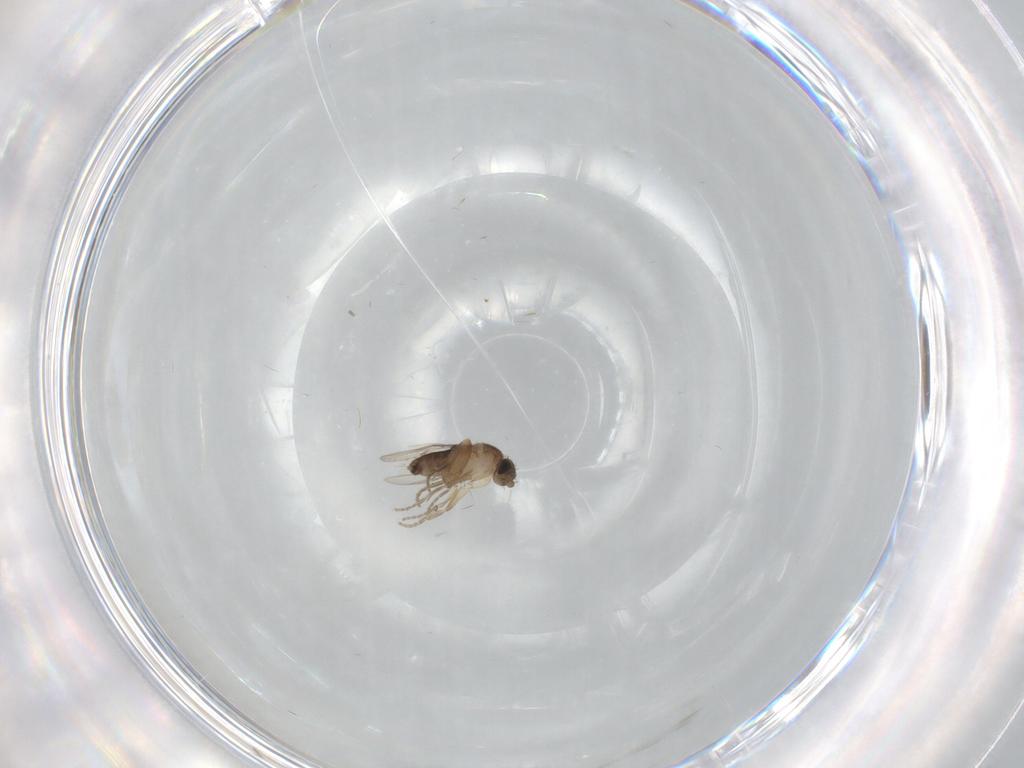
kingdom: Animalia
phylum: Arthropoda
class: Insecta
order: Diptera
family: Phoridae
